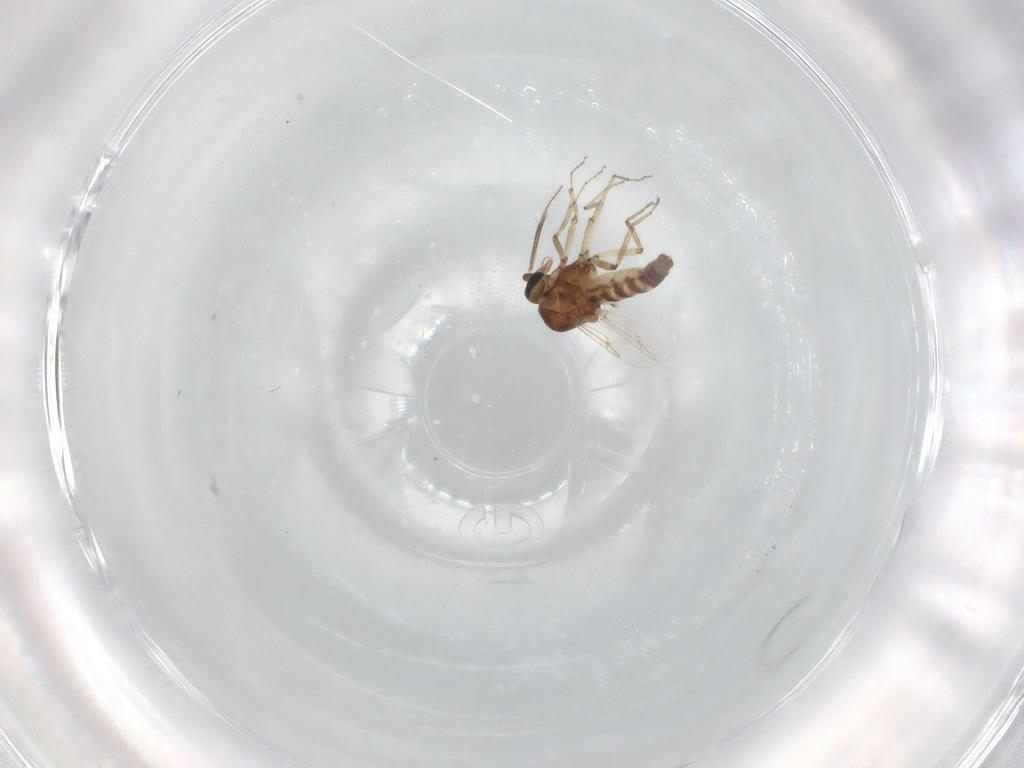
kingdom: Animalia
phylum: Arthropoda
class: Insecta
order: Diptera
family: Ceratopogonidae
